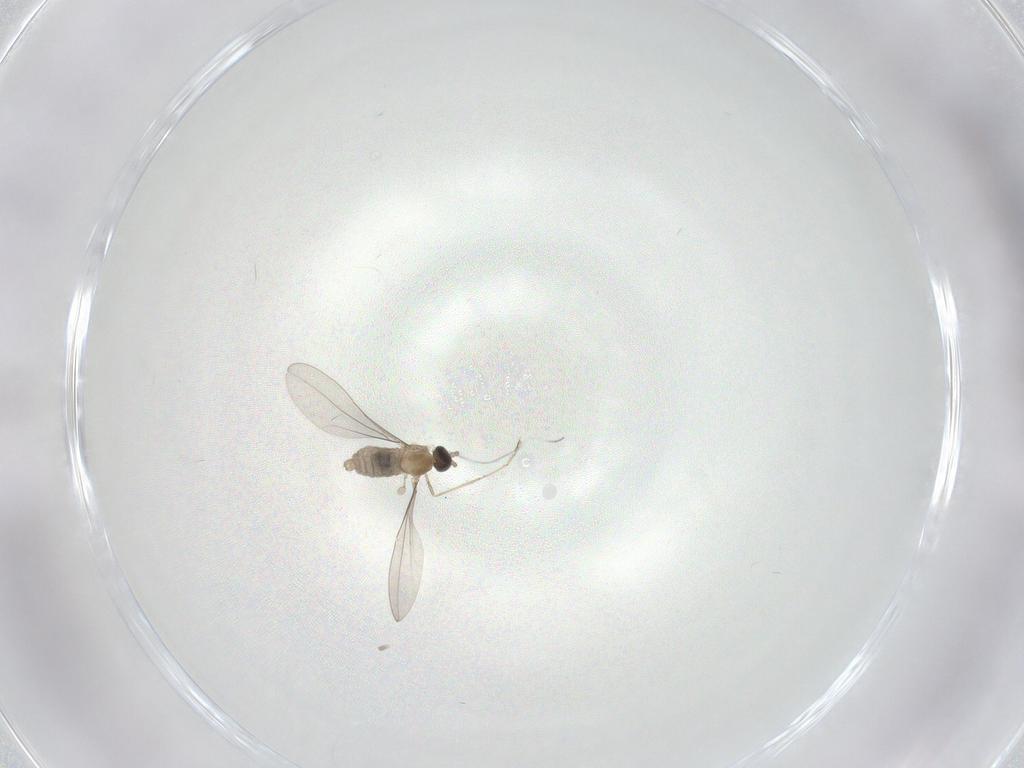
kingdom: Animalia
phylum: Arthropoda
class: Insecta
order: Diptera
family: Cecidomyiidae
